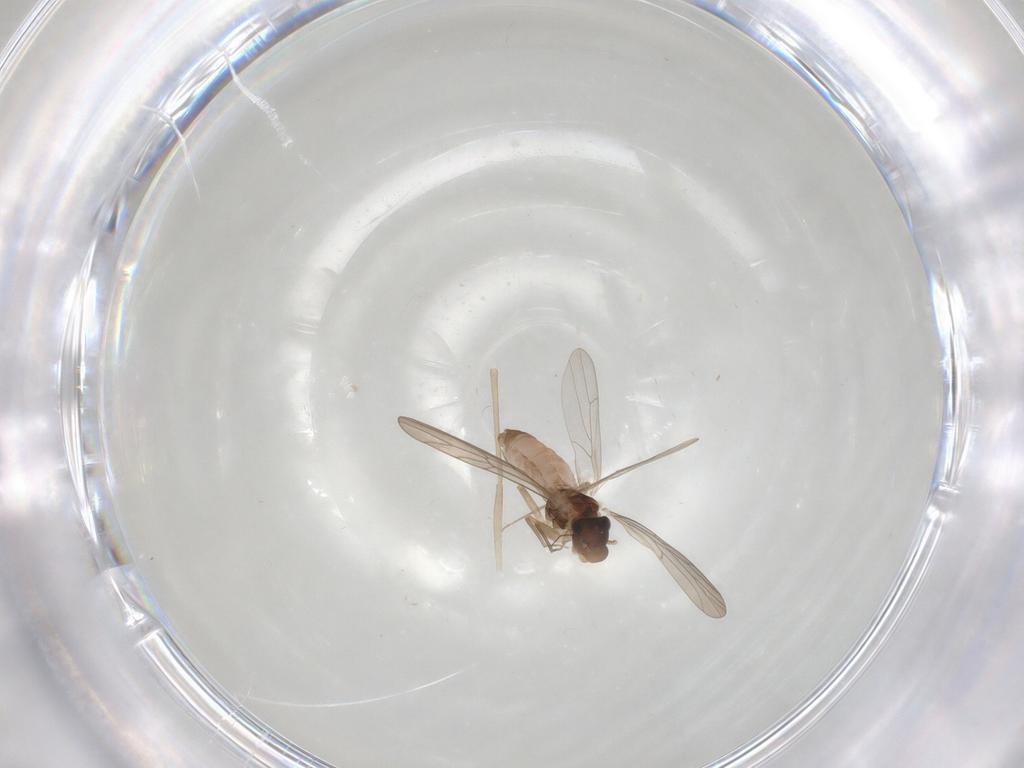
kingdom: Animalia
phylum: Arthropoda
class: Insecta
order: Psocodea
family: Lepidopsocidae
